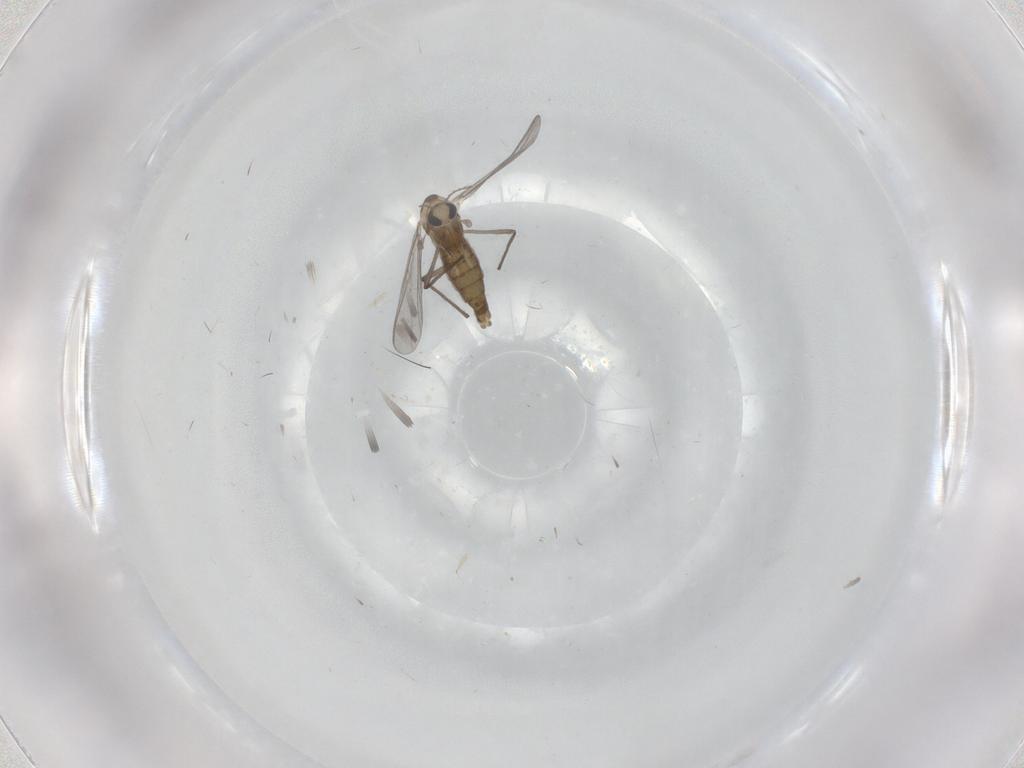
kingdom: Animalia
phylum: Arthropoda
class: Insecta
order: Diptera
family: Chironomidae
